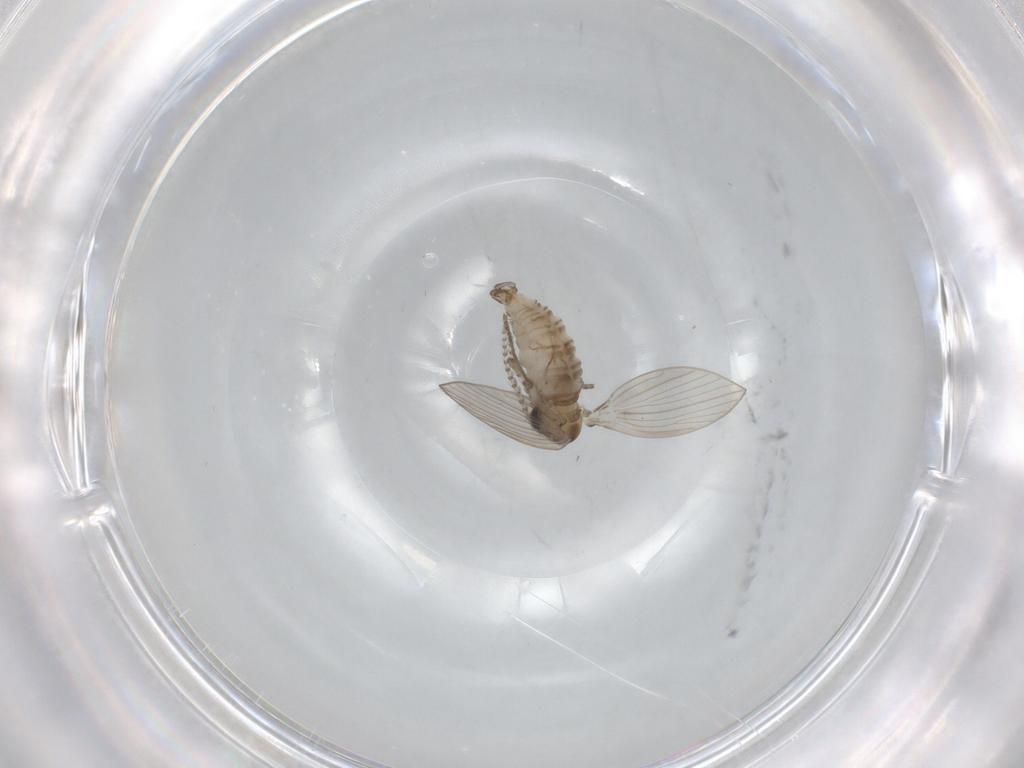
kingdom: Animalia
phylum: Arthropoda
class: Insecta
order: Diptera
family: Psychodidae
